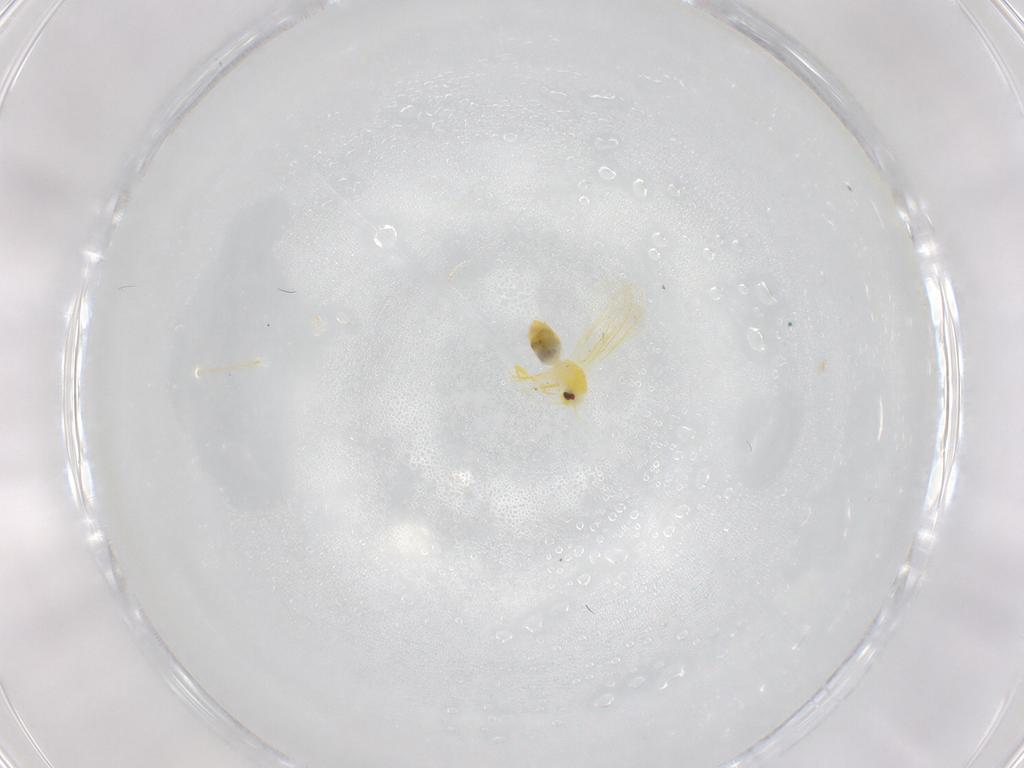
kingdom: Animalia
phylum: Arthropoda
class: Insecta
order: Hemiptera
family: Aleyrodidae
